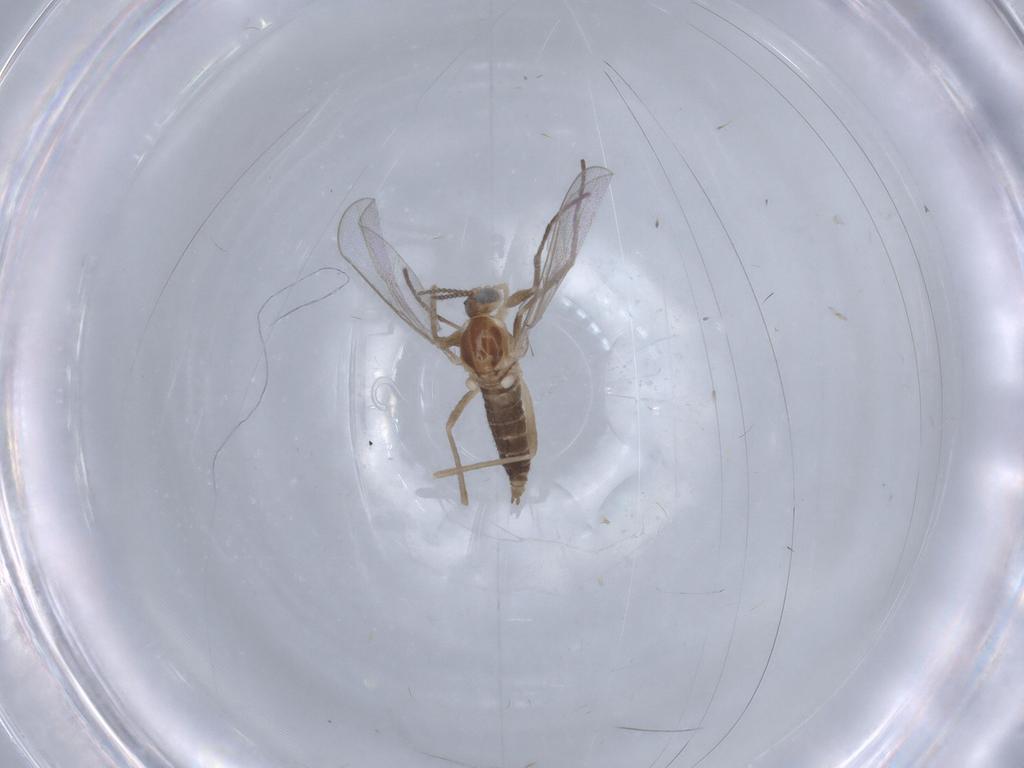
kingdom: Animalia
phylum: Arthropoda
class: Insecta
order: Diptera
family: Cecidomyiidae
